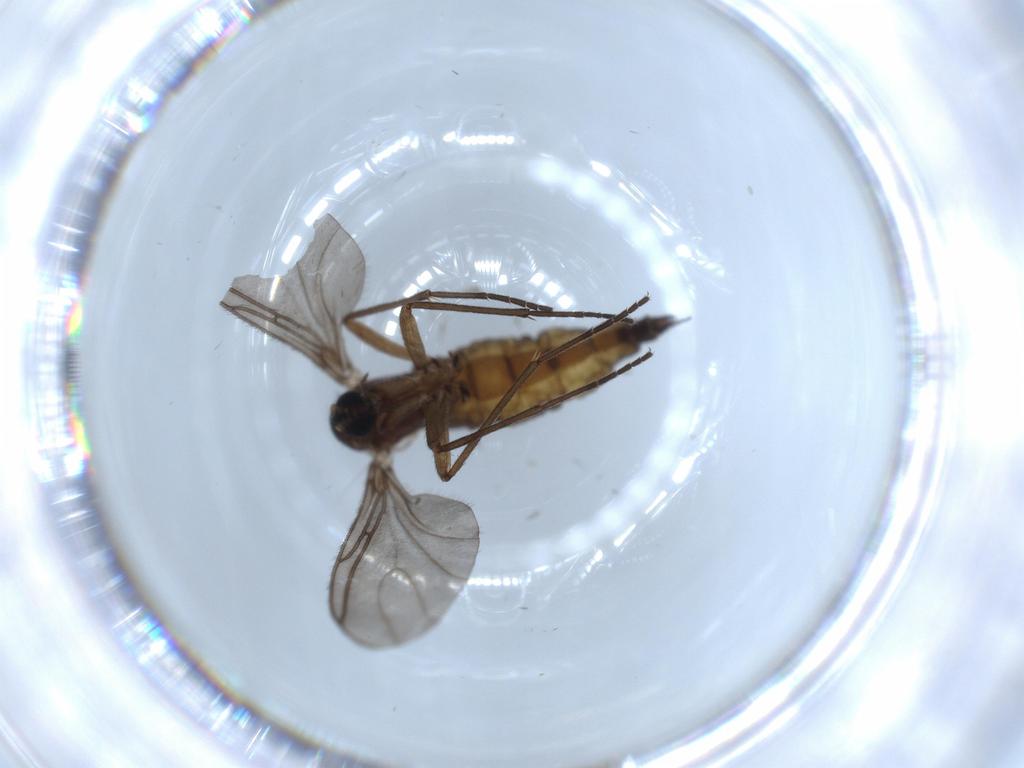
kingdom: Animalia
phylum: Arthropoda
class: Insecta
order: Diptera
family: Sciaridae
